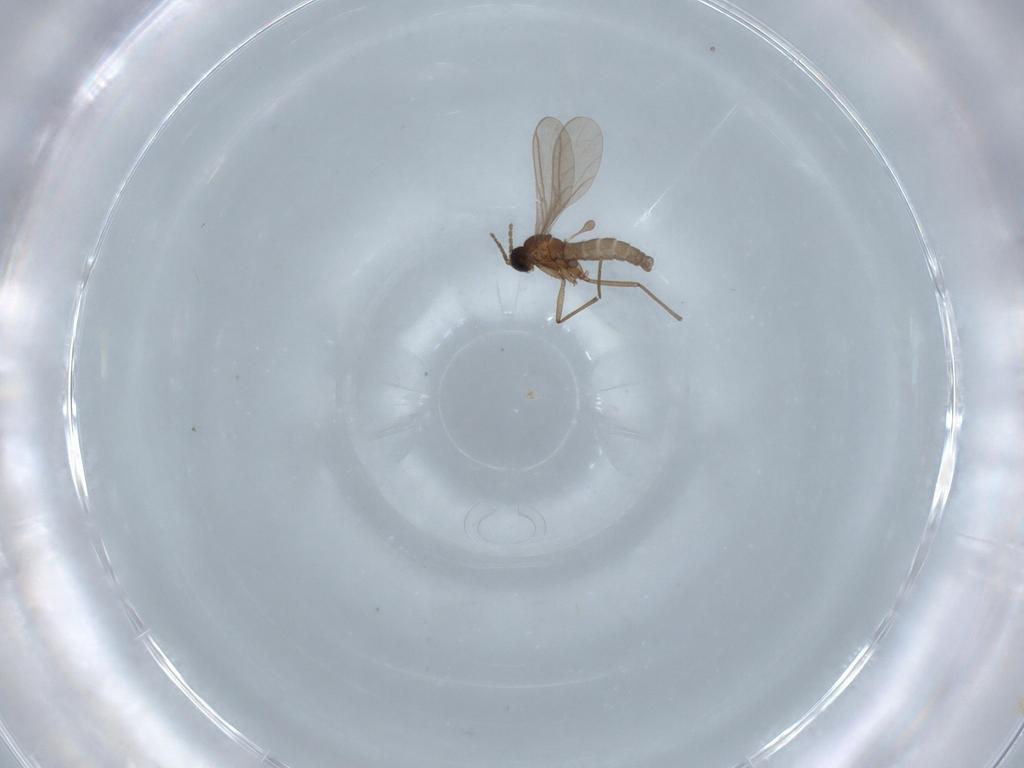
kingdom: Animalia
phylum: Arthropoda
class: Insecta
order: Diptera
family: Sciaridae
